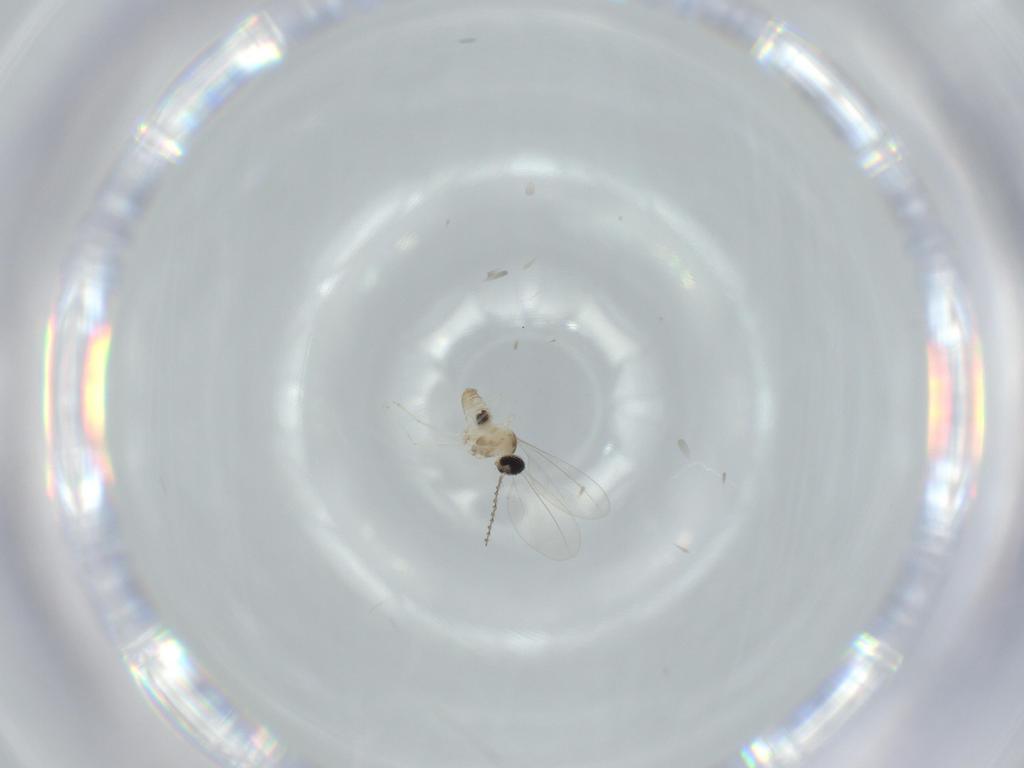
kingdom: Animalia
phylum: Arthropoda
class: Insecta
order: Diptera
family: Cecidomyiidae
